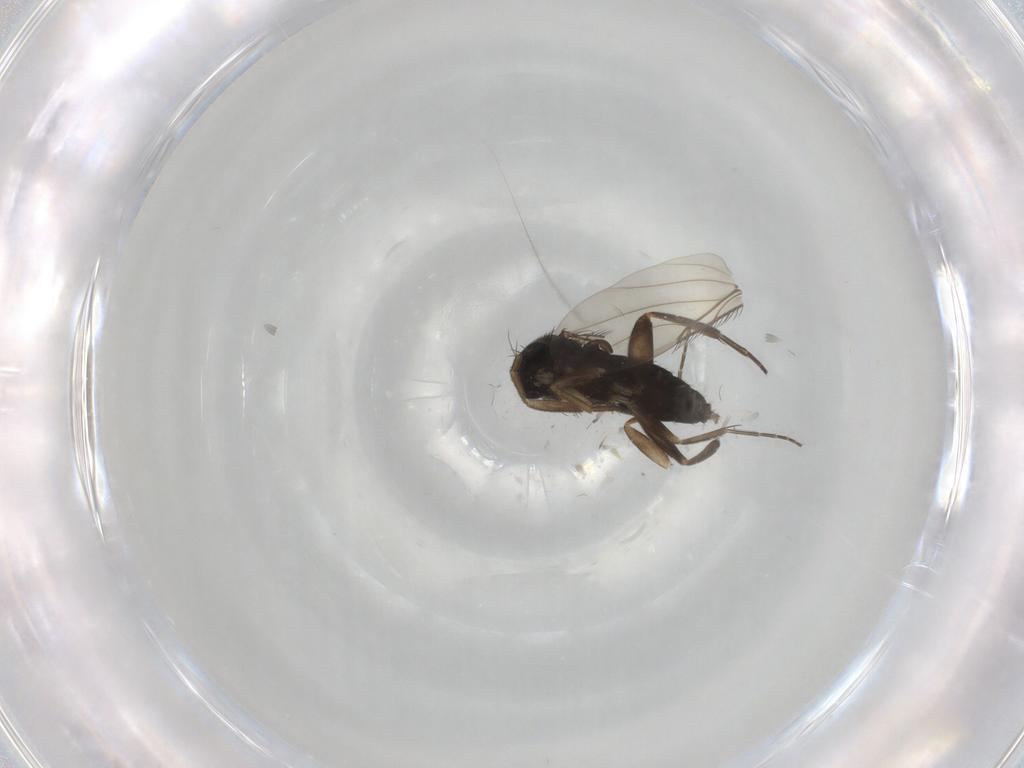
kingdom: Animalia
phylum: Arthropoda
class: Insecta
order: Diptera
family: Phoridae
